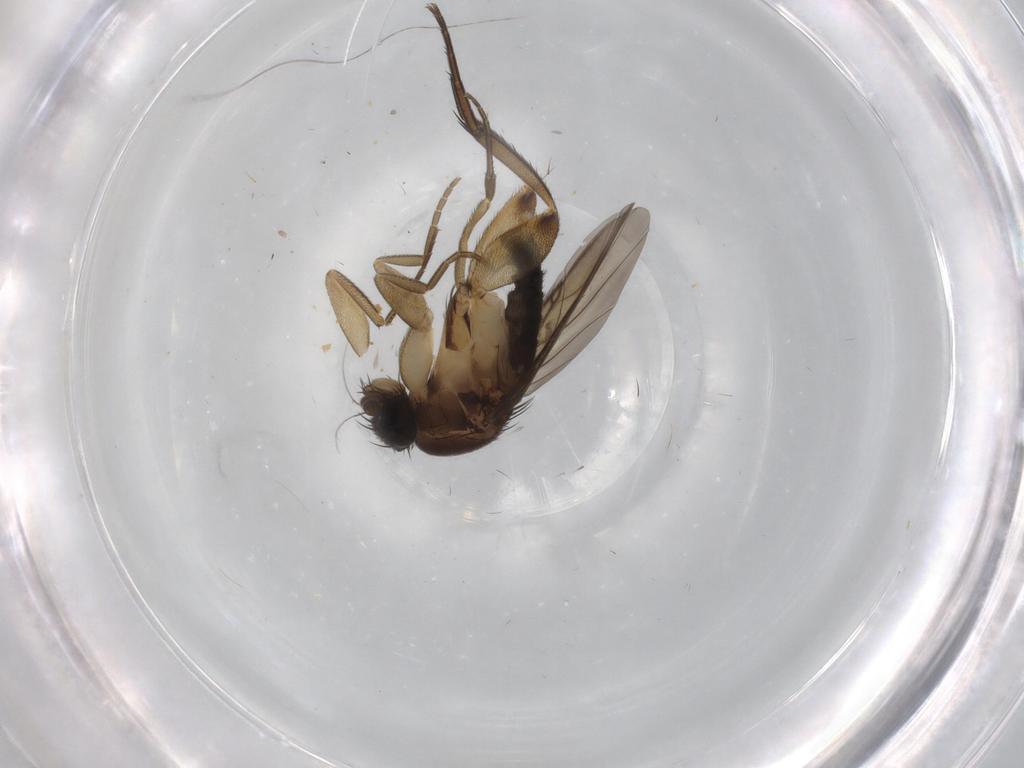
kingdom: Animalia
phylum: Arthropoda
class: Insecta
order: Diptera
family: Phoridae
